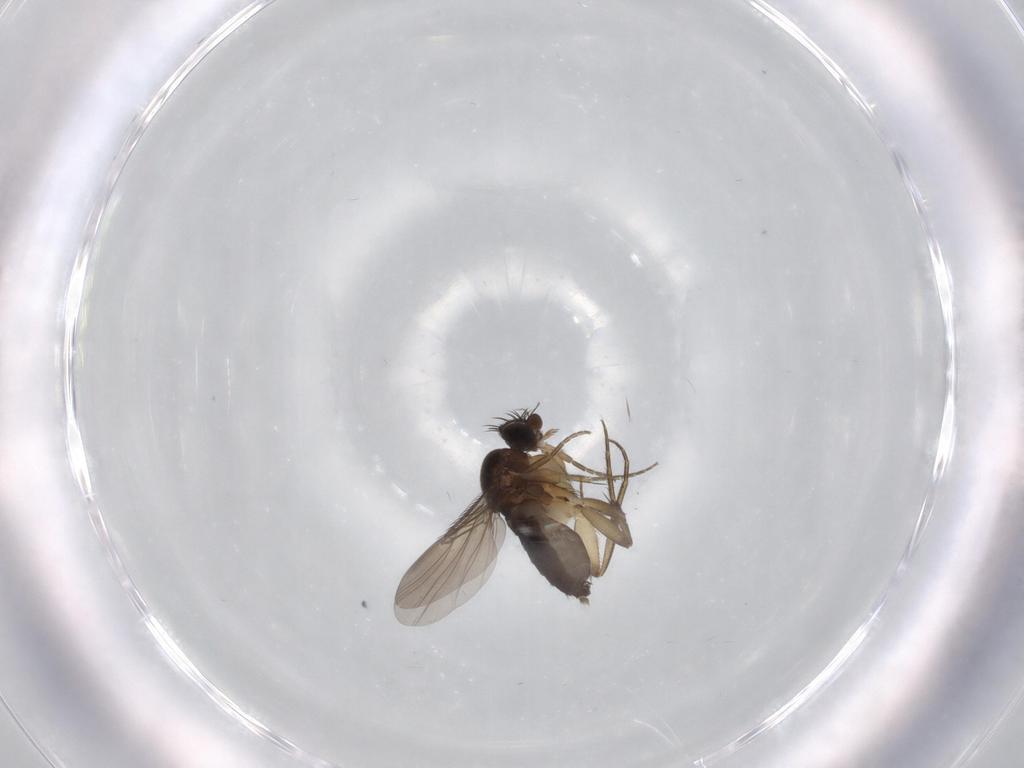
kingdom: Animalia
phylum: Arthropoda
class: Insecta
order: Diptera
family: Phoridae
